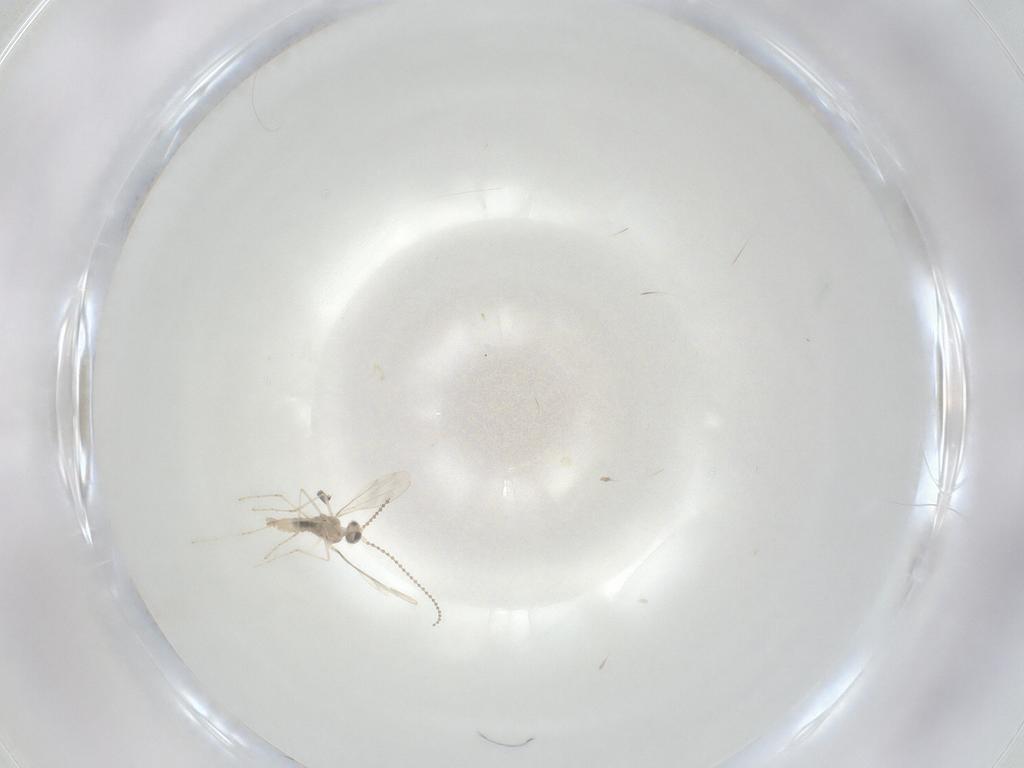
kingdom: Animalia
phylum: Arthropoda
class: Insecta
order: Diptera
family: Cecidomyiidae
